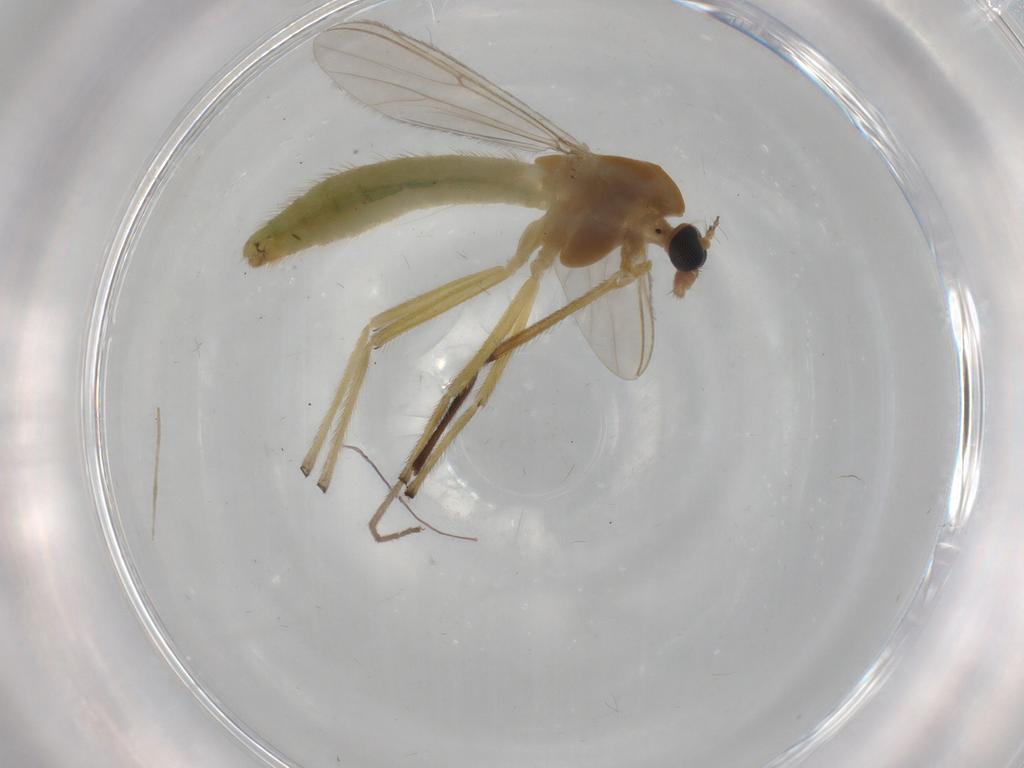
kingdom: Animalia
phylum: Arthropoda
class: Insecta
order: Diptera
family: Chironomidae
